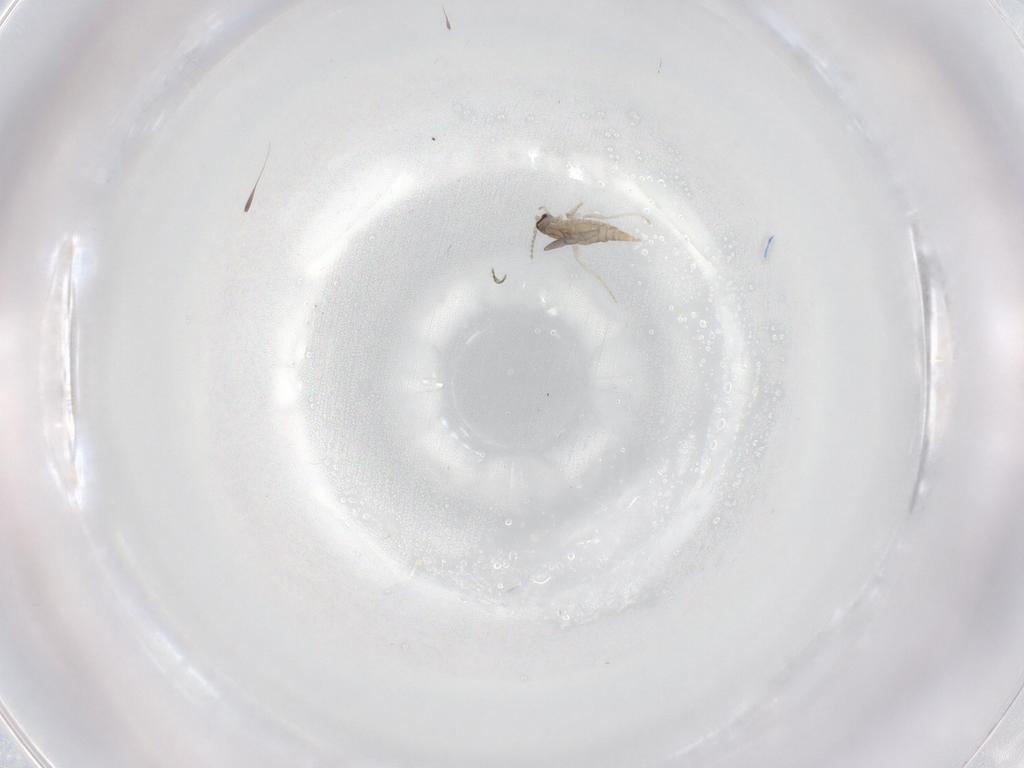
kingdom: Animalia
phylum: Arthropoda
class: Insecta
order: Diptera
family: Cecidomyiidae
